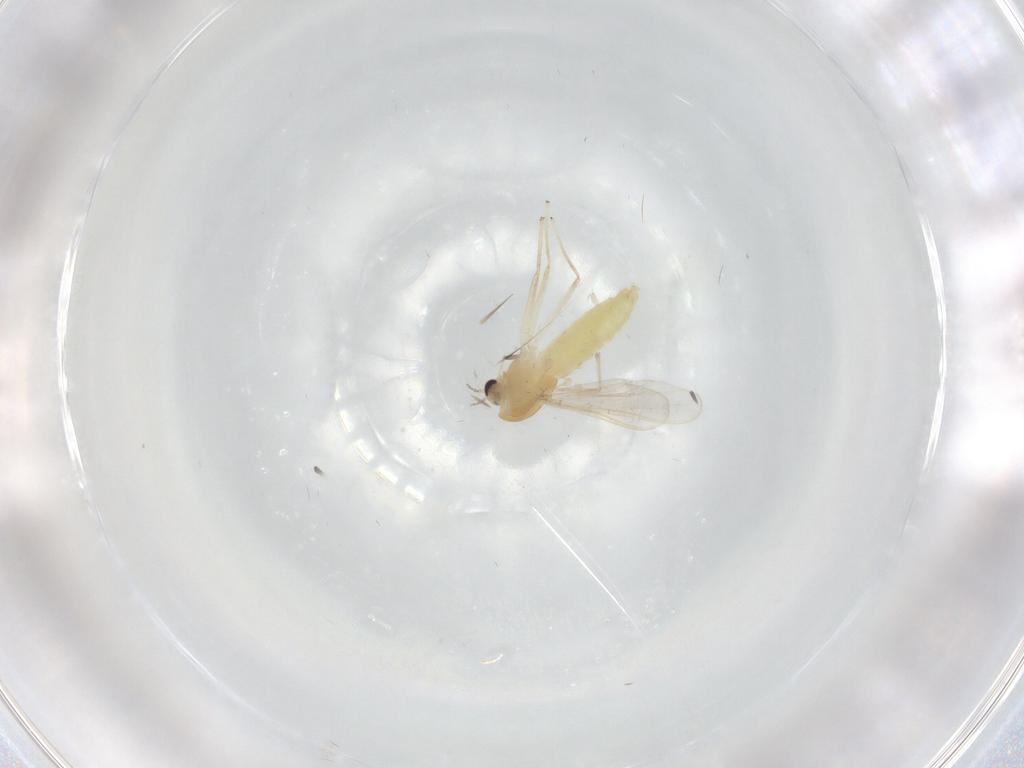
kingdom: Animalia
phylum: Arthropoda
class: Insecta
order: Diptera
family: Chironomidae
